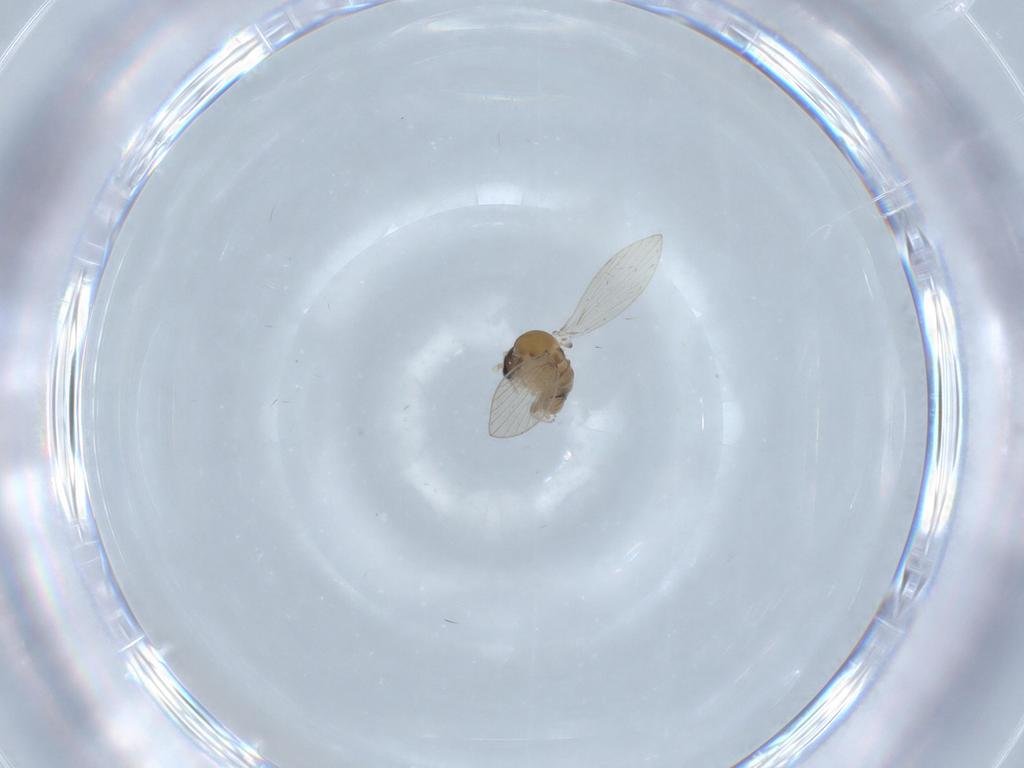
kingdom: Animalia
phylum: Arthropoda
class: Insecta
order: Diptera
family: Psychodidae
